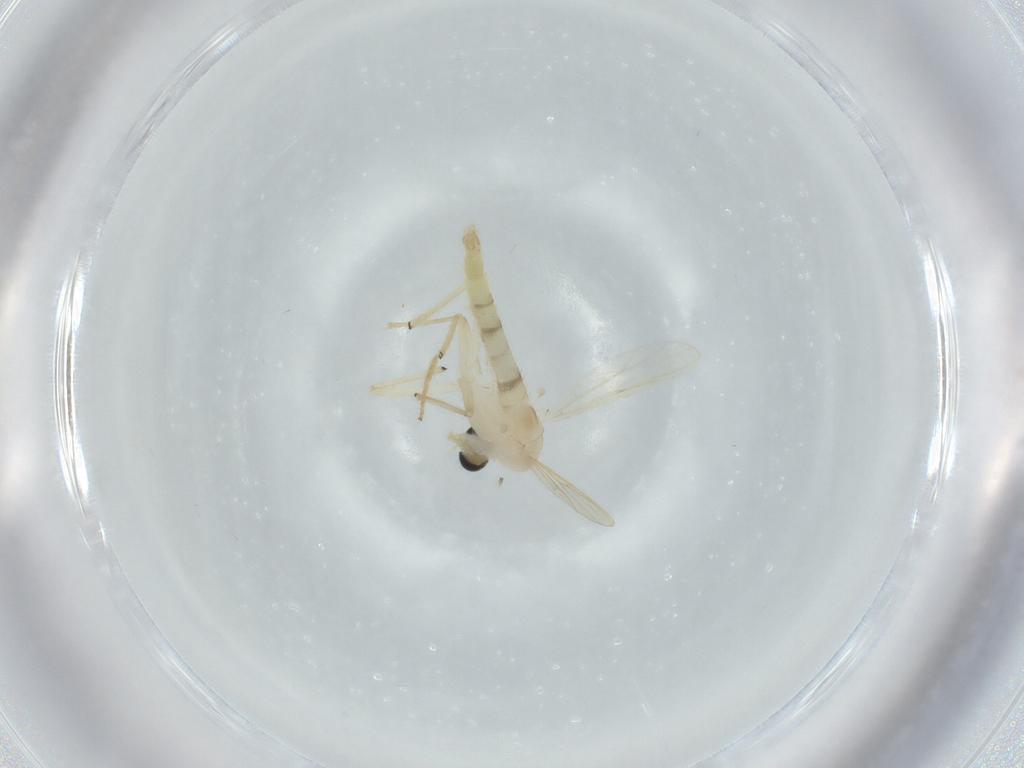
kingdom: Animalia
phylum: Arthropoda
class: Insecta
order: Diptera
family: Chironomidae
